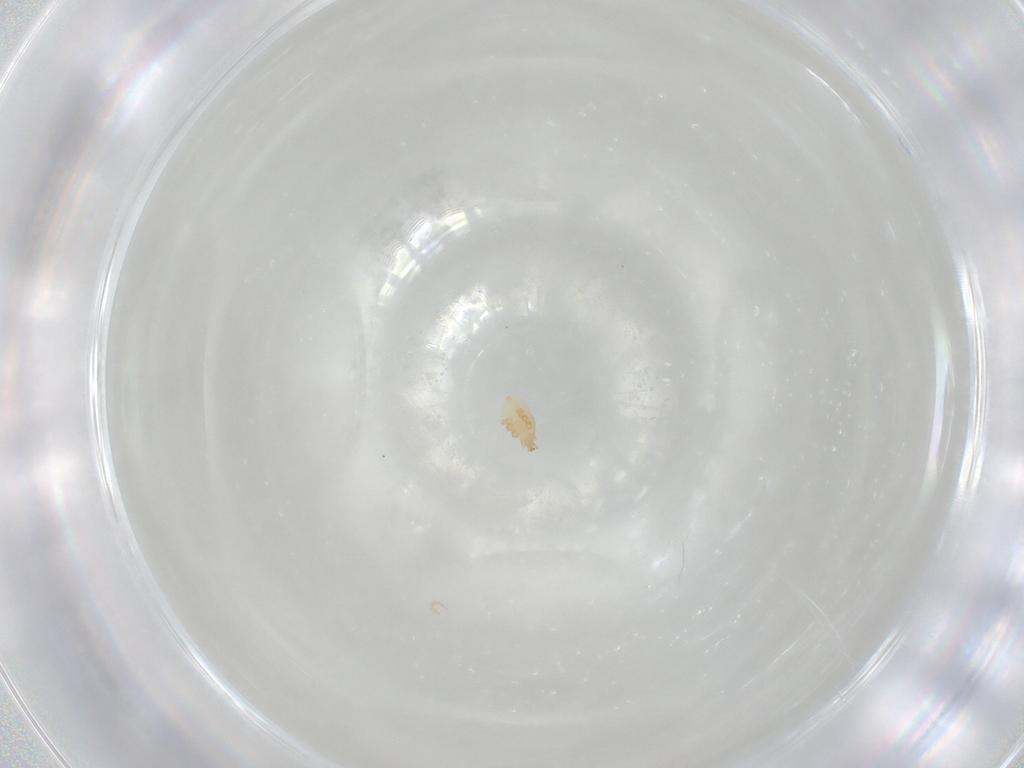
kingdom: Animalia
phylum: Arthropoda
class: Arachnida
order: Mesostigmata
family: Parasitidae
